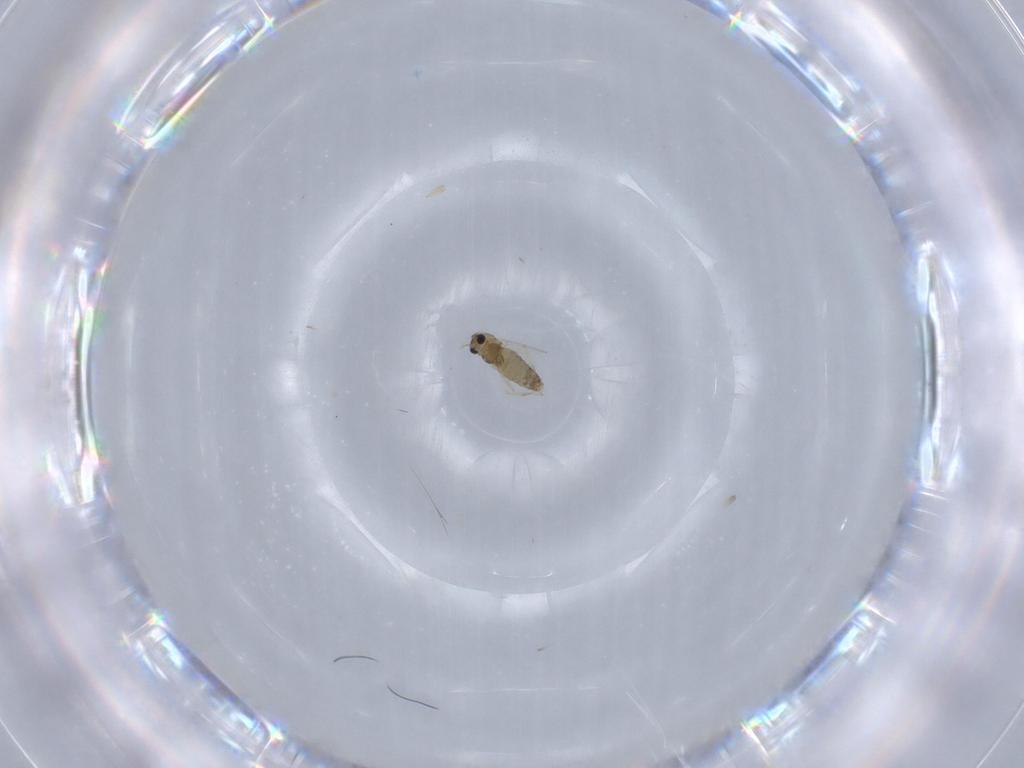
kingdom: Animalia
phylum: Arthropoda
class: Insecta
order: Diptera
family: Chironomidae
